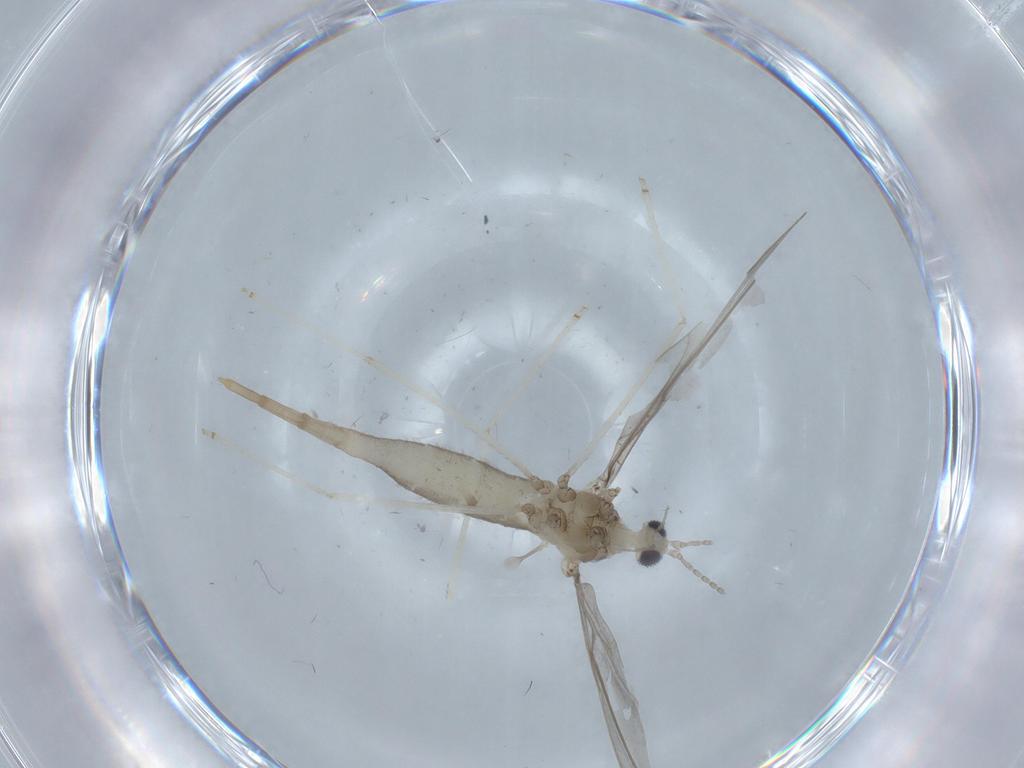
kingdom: Animalia
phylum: Arthropoda
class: Insecta
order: Diptera
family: Cecidomyiidae
